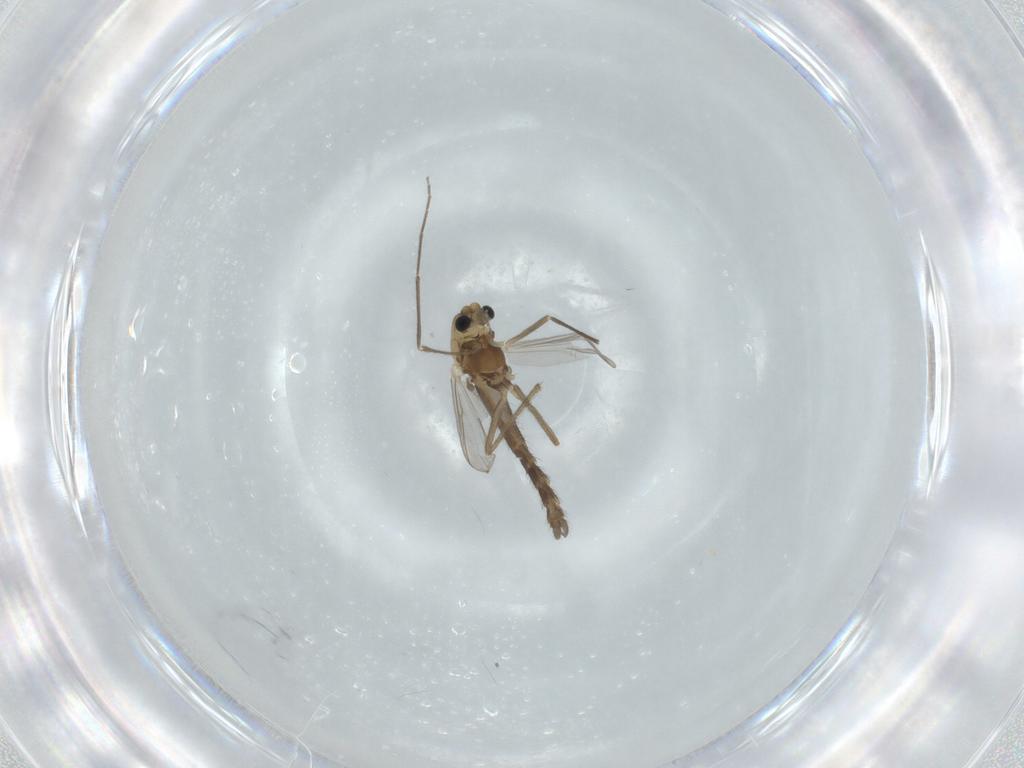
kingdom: Animalia
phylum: Arthropoda
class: Insecta
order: Diptera
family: Chironomidae
